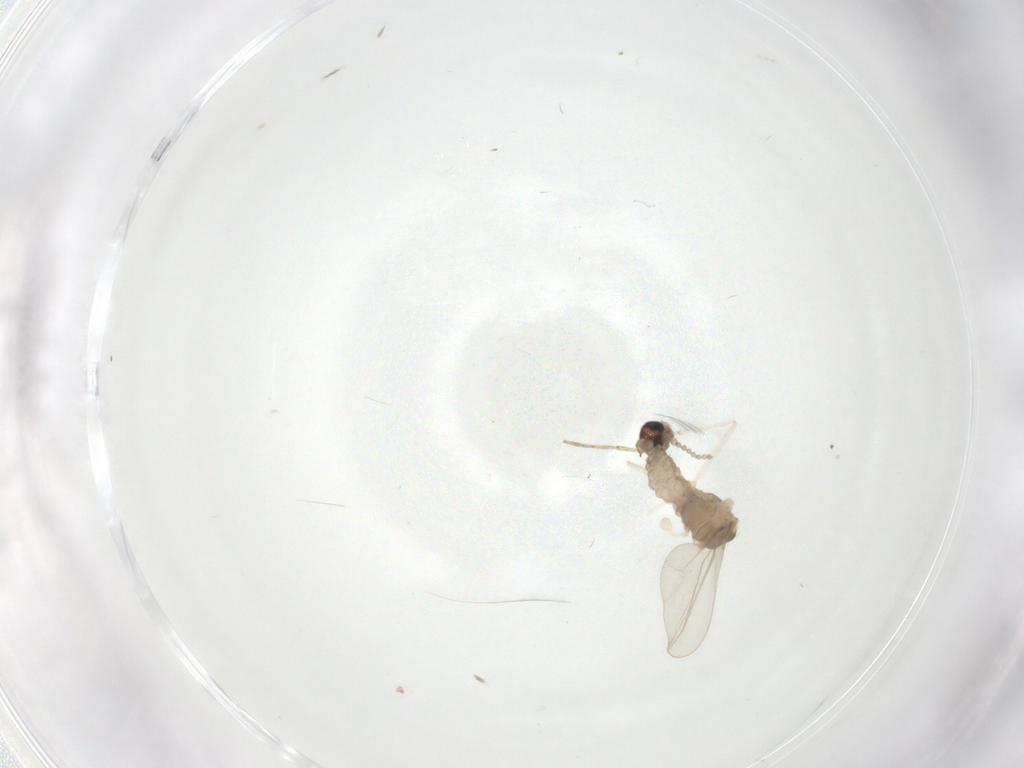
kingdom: Animalia
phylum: Arthropoda
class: Insecta
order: Diptera
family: Cecidomyiidae
